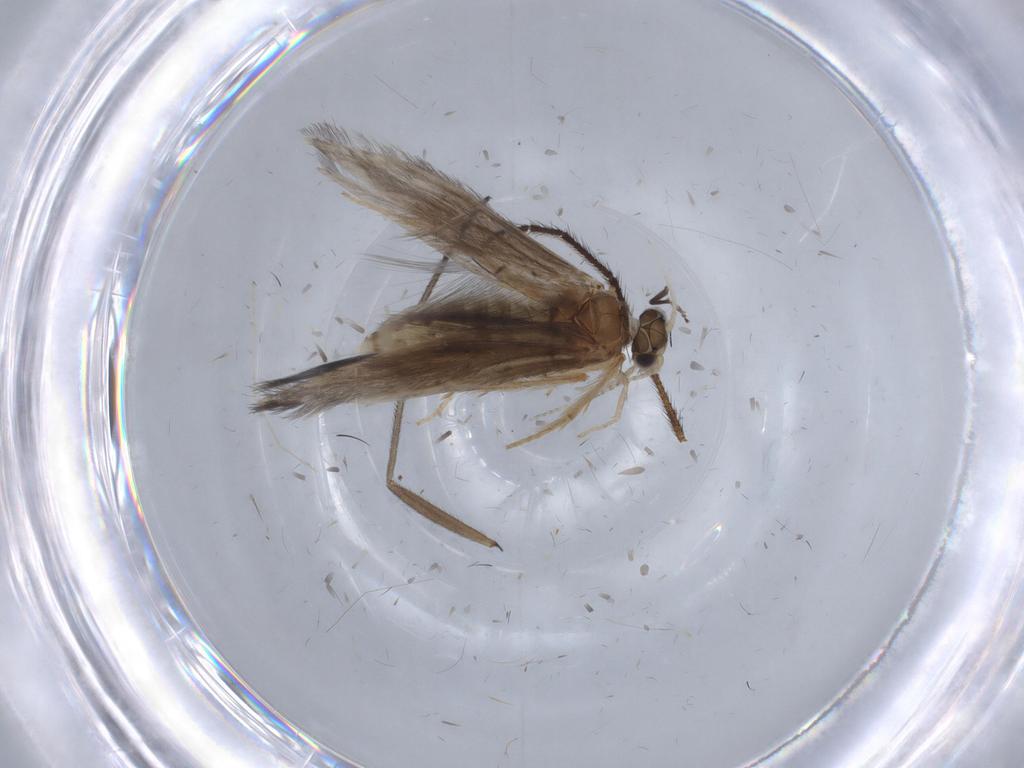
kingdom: Animalia
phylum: Arthropoda
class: Insecta
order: Trichoptera
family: Hydroptilidae
